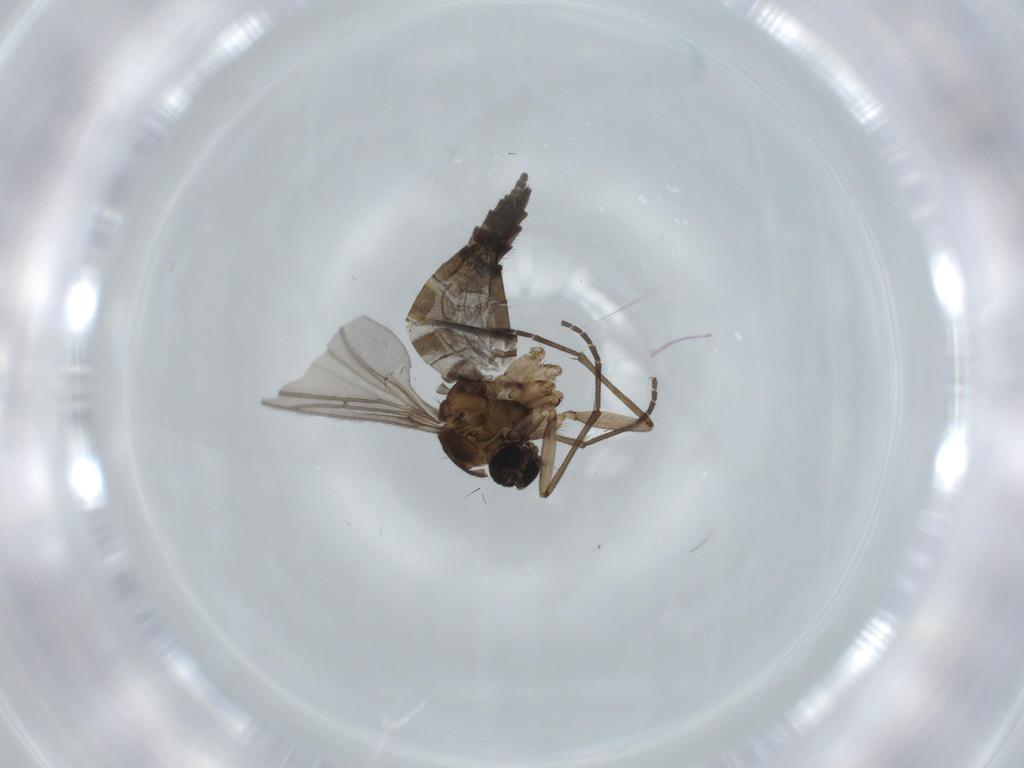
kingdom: Animalia
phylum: Arthropoda
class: Insecta
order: Diptera
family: Sciaridae
